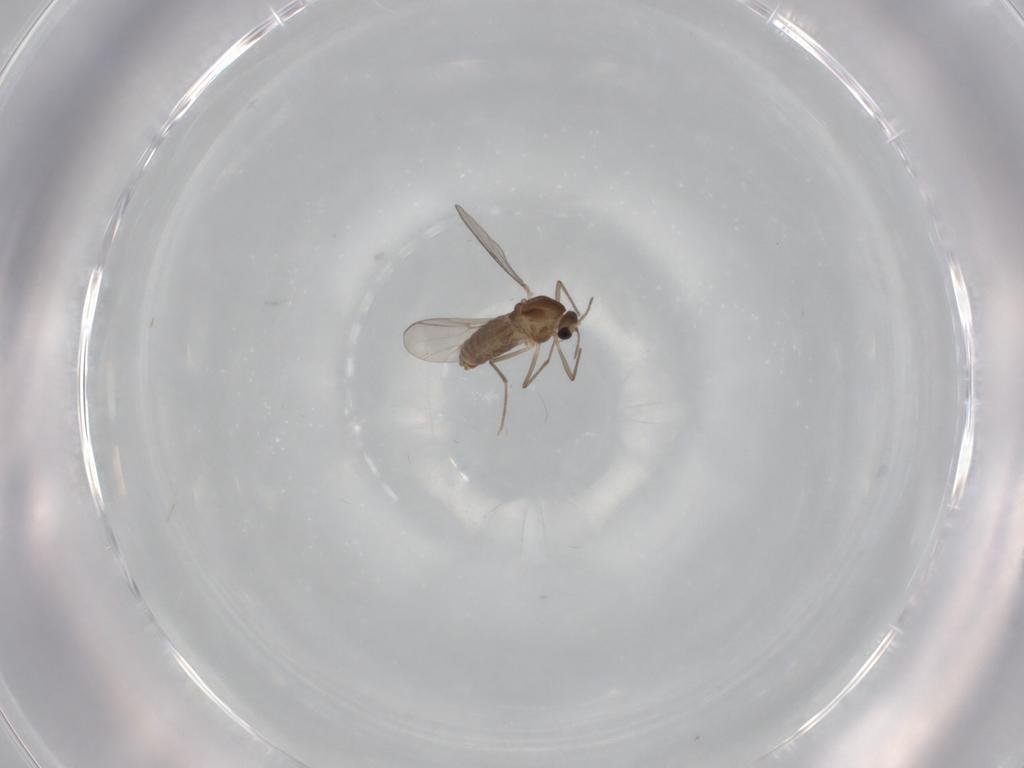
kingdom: Animalia
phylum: Arthropoda
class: Insecta
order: Diptera
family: Chironomidae
